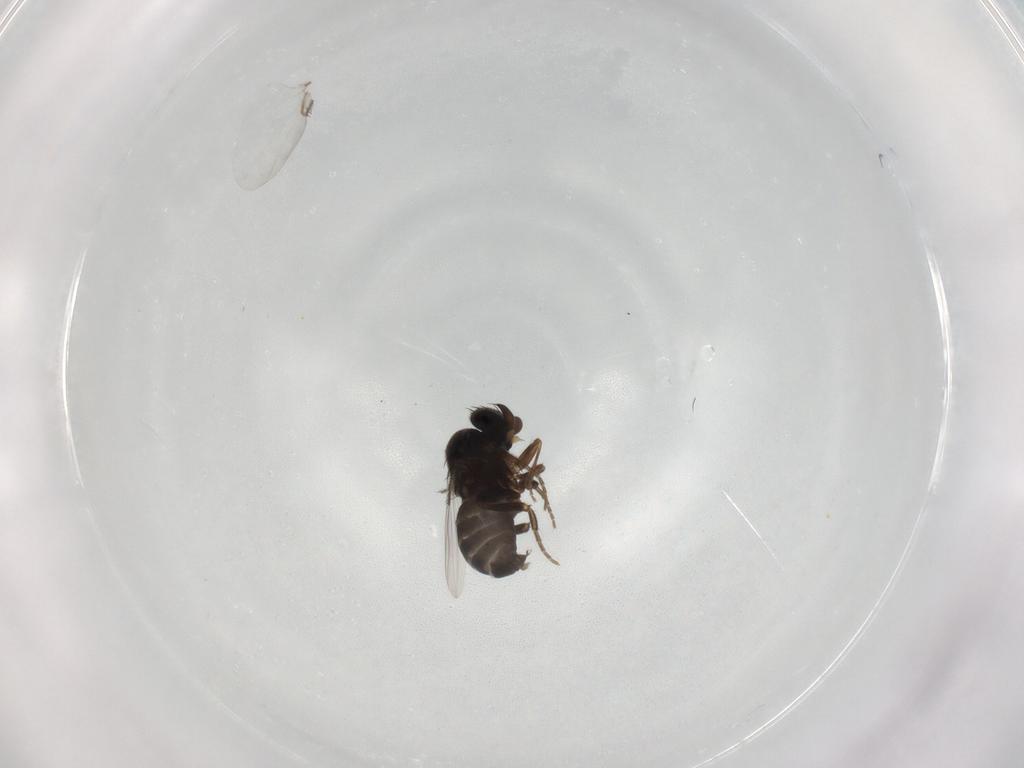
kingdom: Animalia
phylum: Arthropoda
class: Insecta
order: Diptera
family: Phoridae
